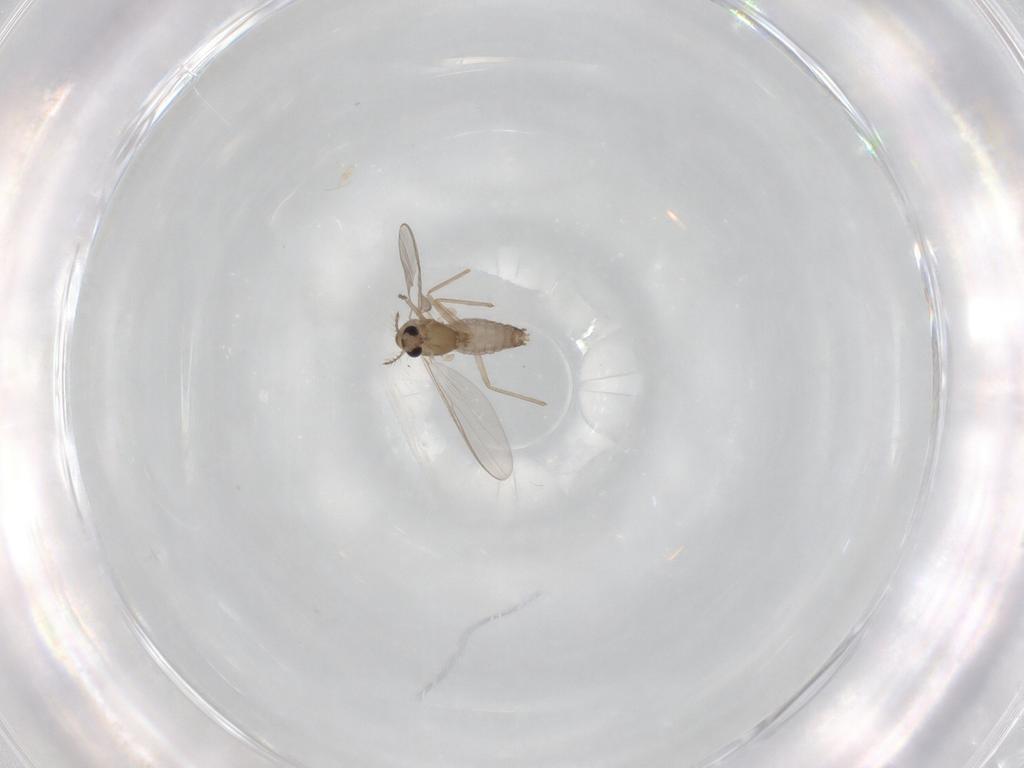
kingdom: Animalia
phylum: Arthropoda
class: Insecta
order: Diptera
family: Chironomidae
